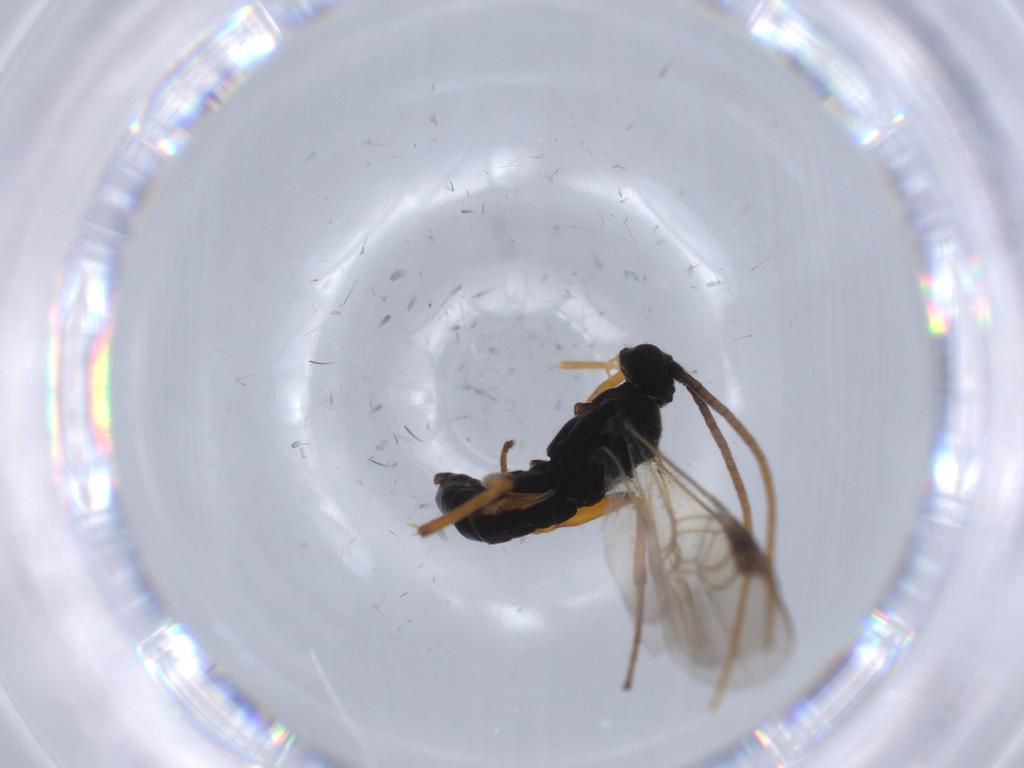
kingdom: Animalia
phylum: Arthropoda
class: Insecta
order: Hymenoptera
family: Braconidae
